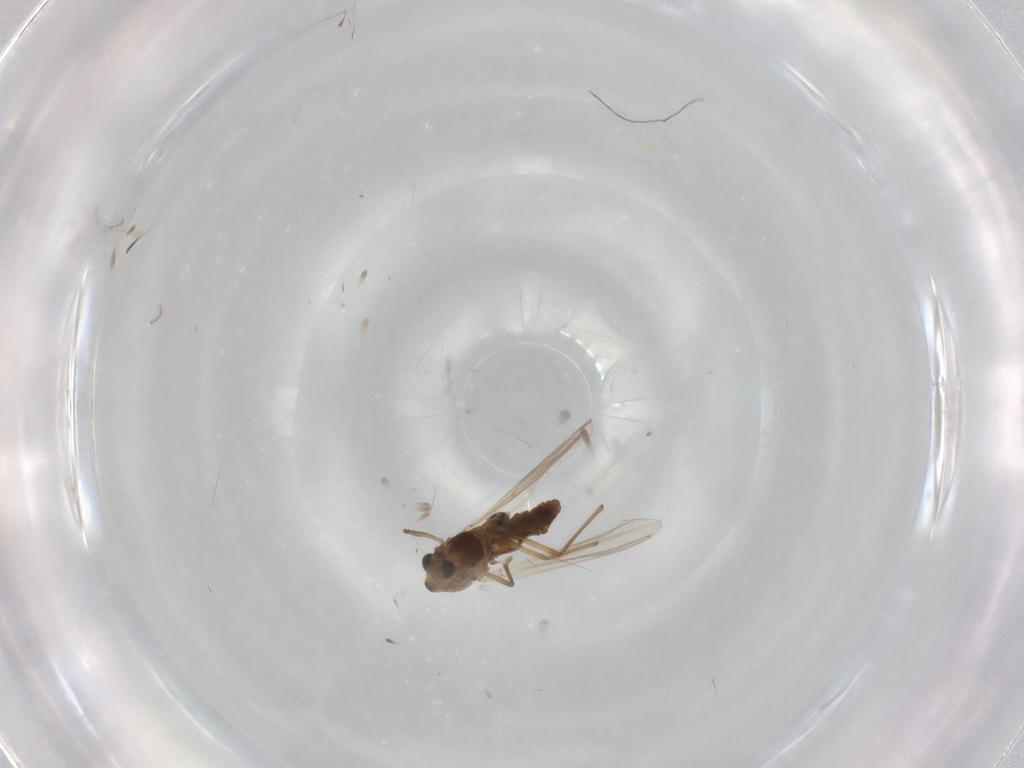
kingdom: Animalia
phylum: Arthropoda
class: Insecta
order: Diptera
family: Chironomidae
